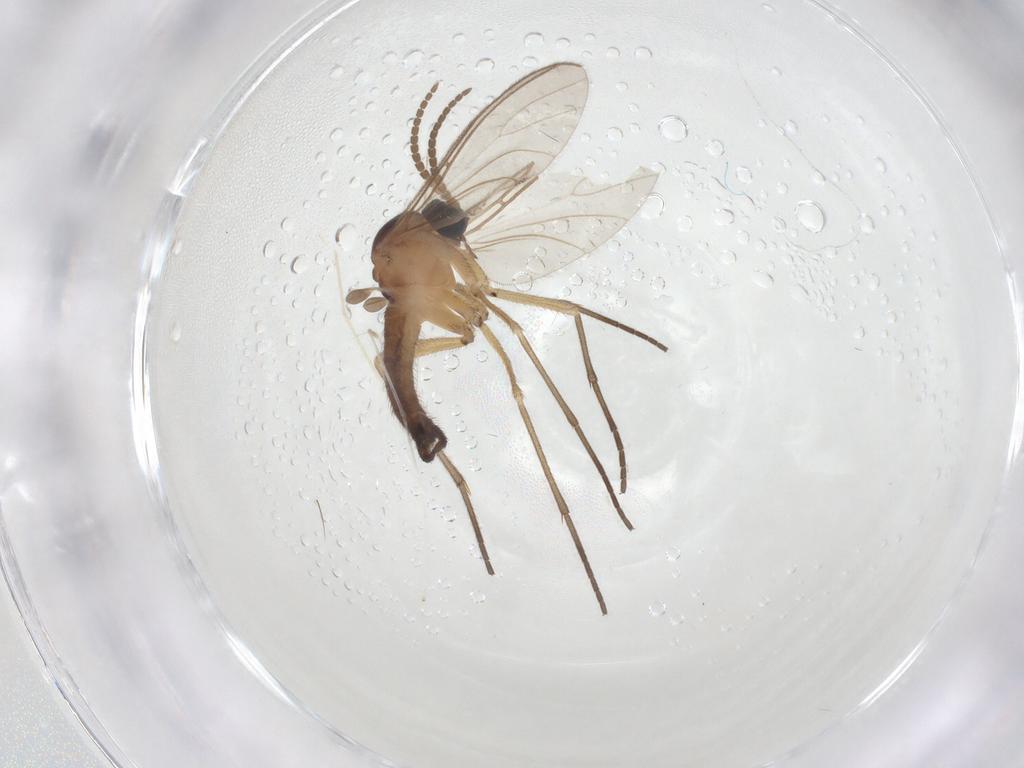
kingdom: Animalia
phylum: Arthropoda
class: Insecta
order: Diptera
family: Sciaridae
